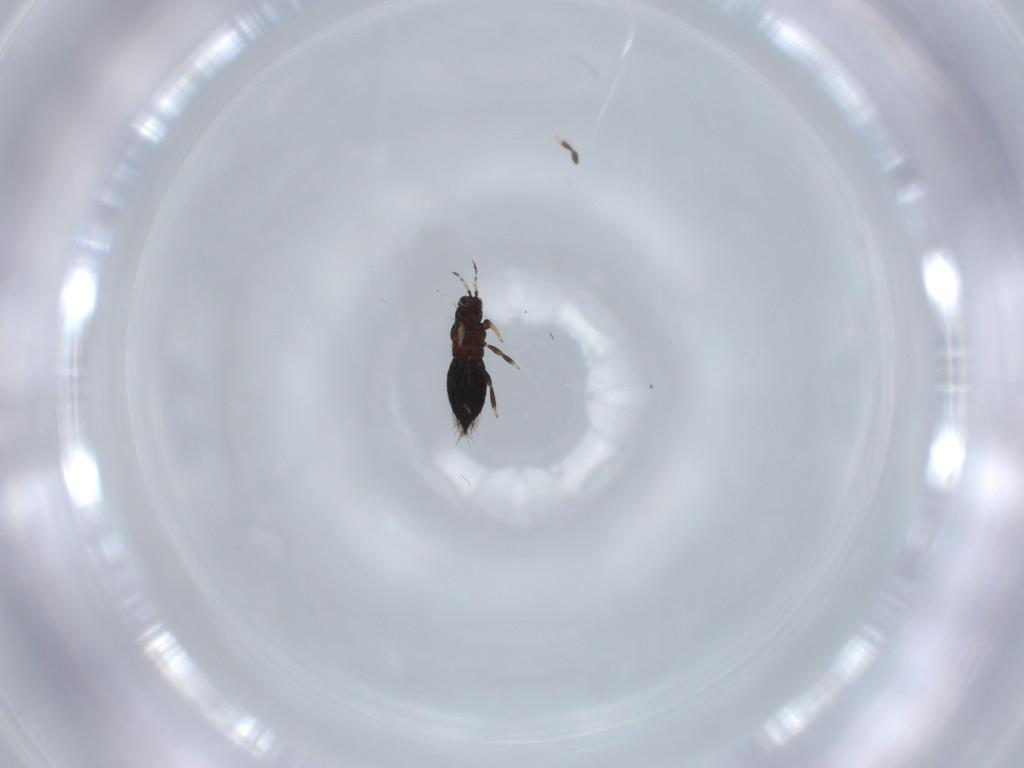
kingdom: Animalia
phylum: Arthropoda
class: Insecta
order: Thysanoptera
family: Thripidae
